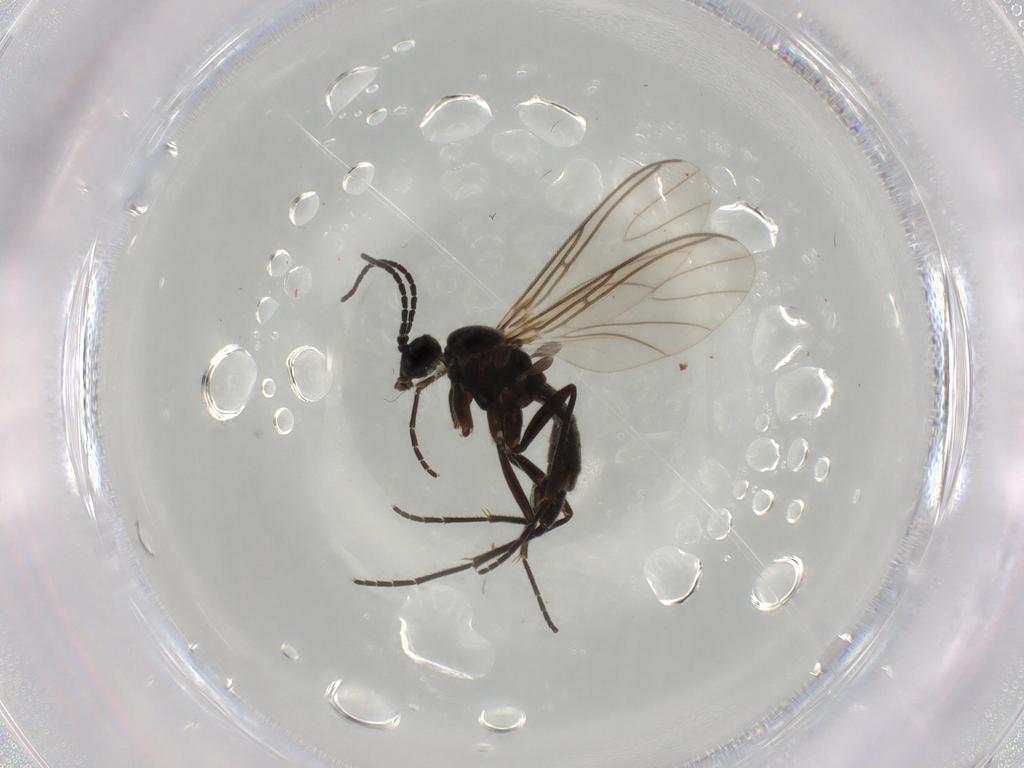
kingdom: Animalia
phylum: Arthropoda
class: Insecta
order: Diptera
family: Sciaridae
